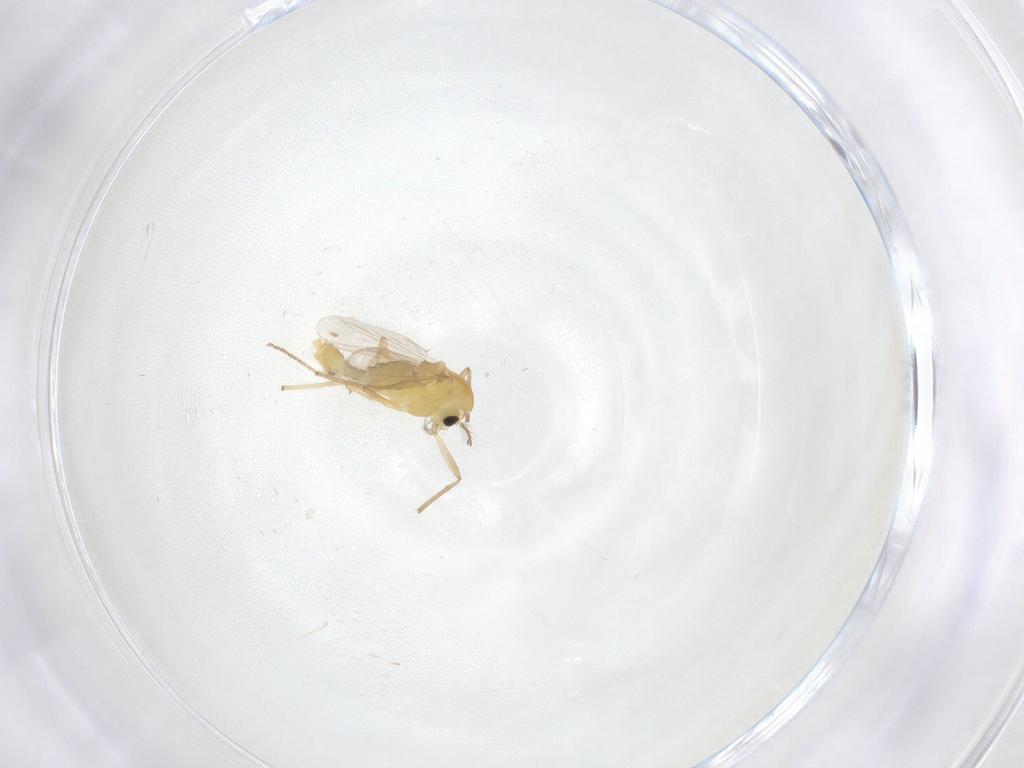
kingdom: Animalia
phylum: Arthropoda
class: Insecta
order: Diptera
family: Chironomidae
